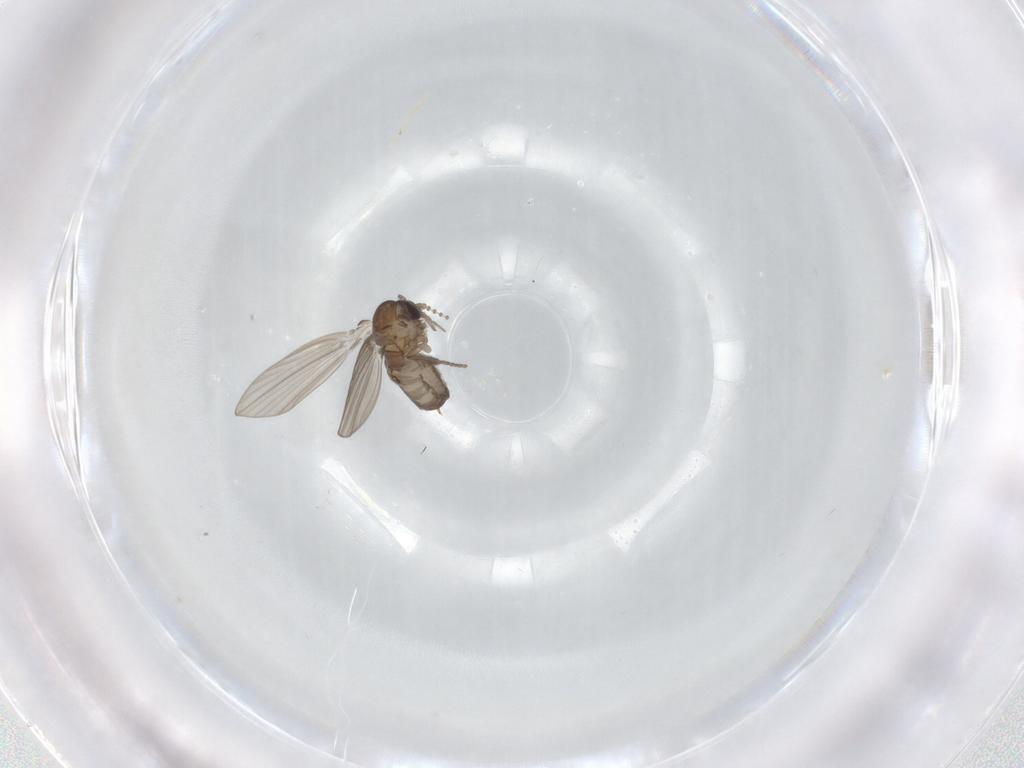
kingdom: Animalia
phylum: Arthropoda
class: Insecta
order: Diptera
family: Psychodidae
